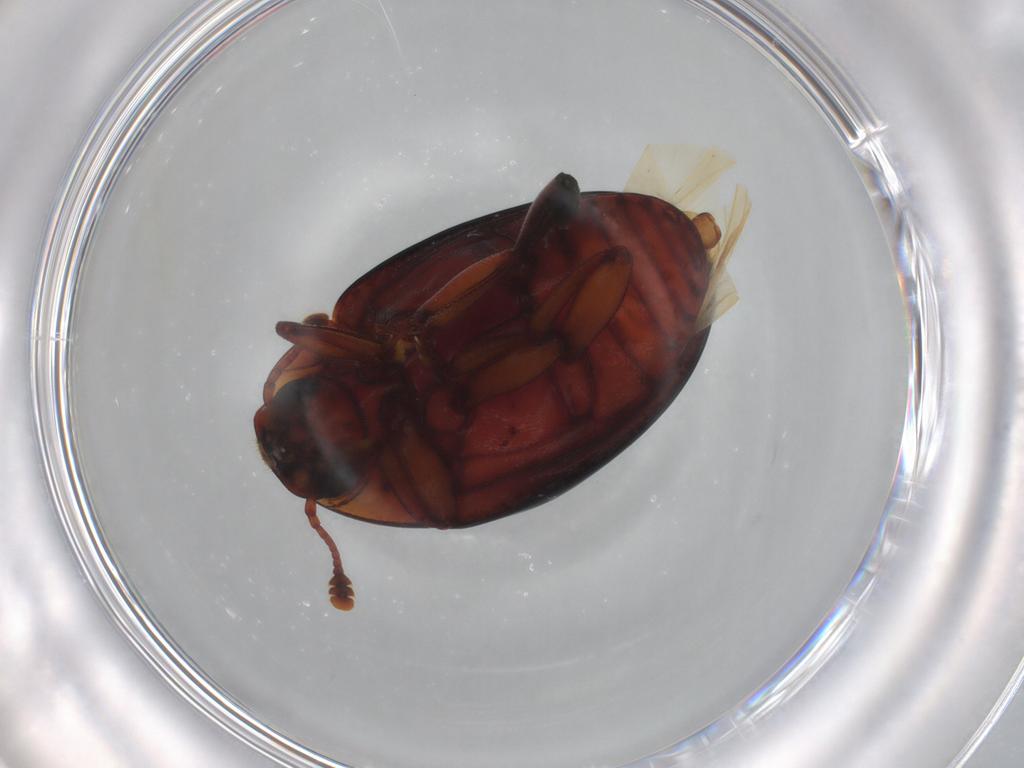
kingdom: Animalia
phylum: Arthropoda
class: Insecta
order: Coleoptera
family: Zopheridae
